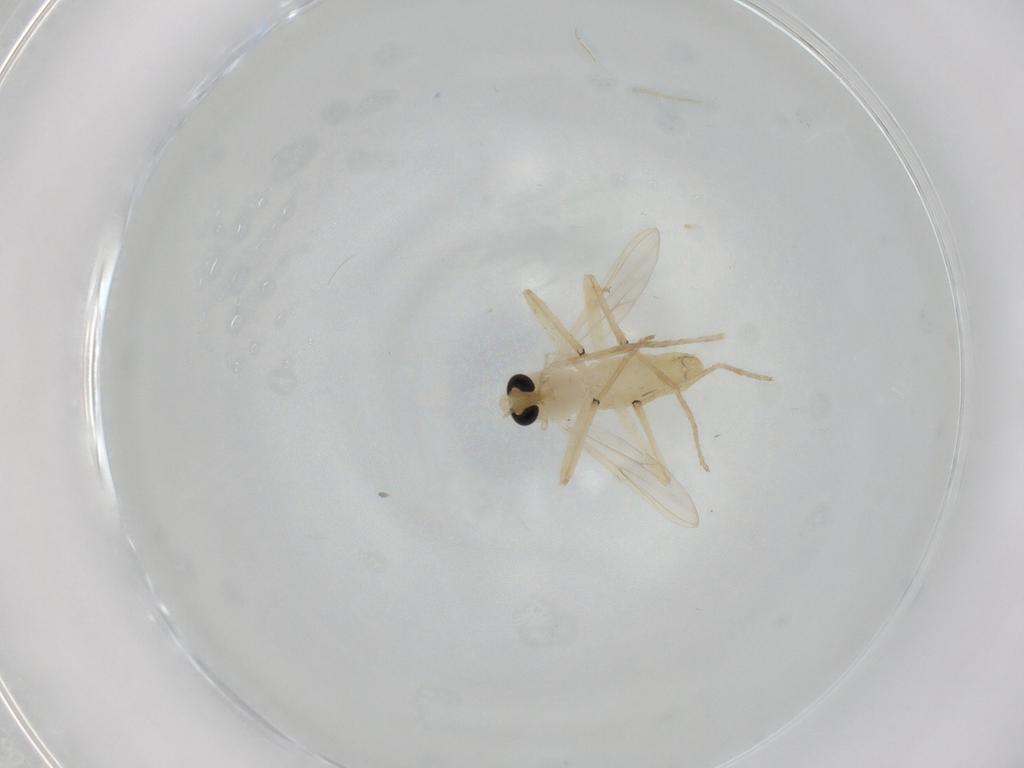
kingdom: Animalia
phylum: Arthropoda
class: Insecta
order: Diptera
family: Chironomidae
